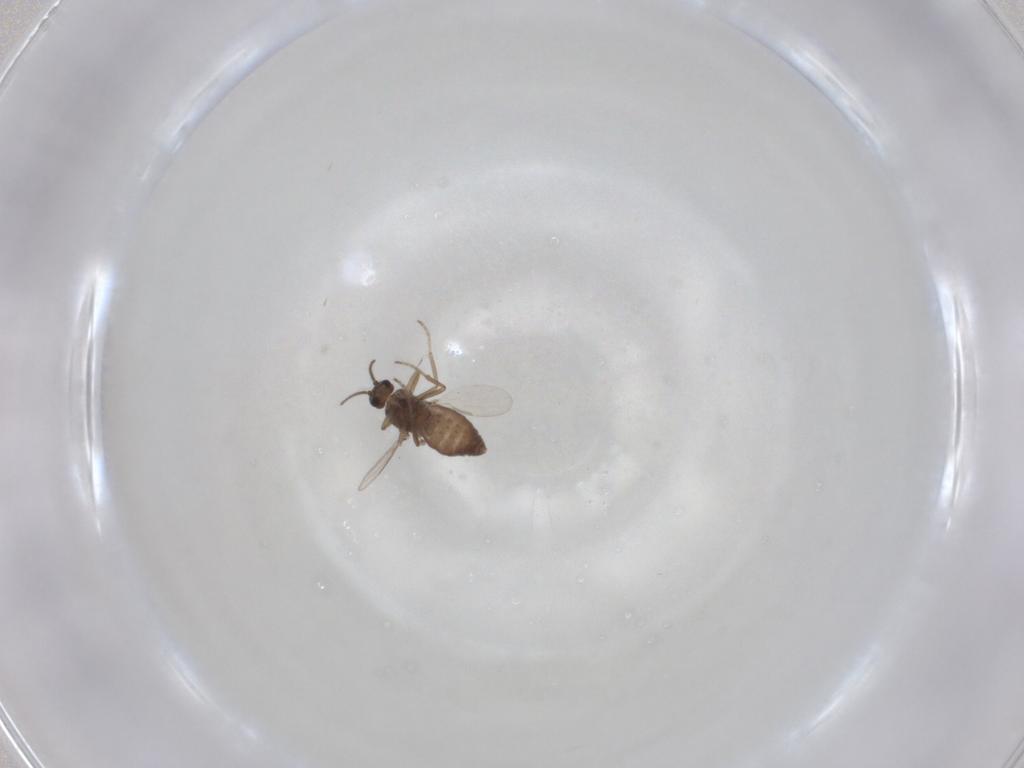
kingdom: Animalia
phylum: Arthropoda
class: Insecta
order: Diptera
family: Ceratopogonidae
